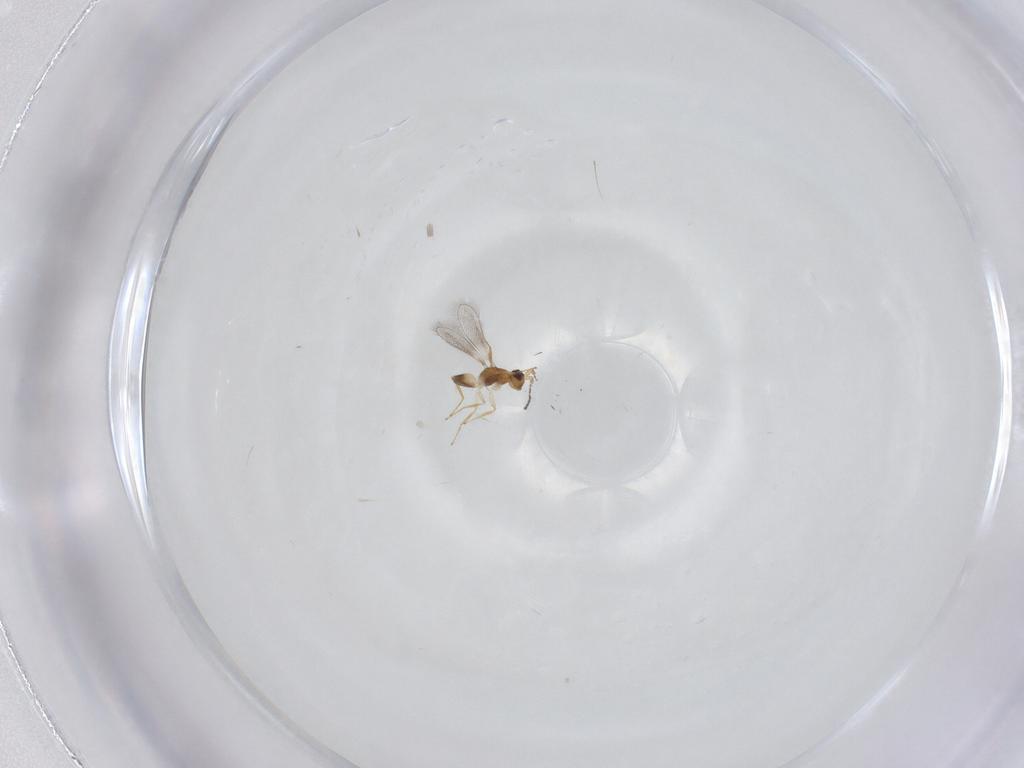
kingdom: Animalia
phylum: Arthropoda
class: Insecta
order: Hymenoptera
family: Mymaridae
